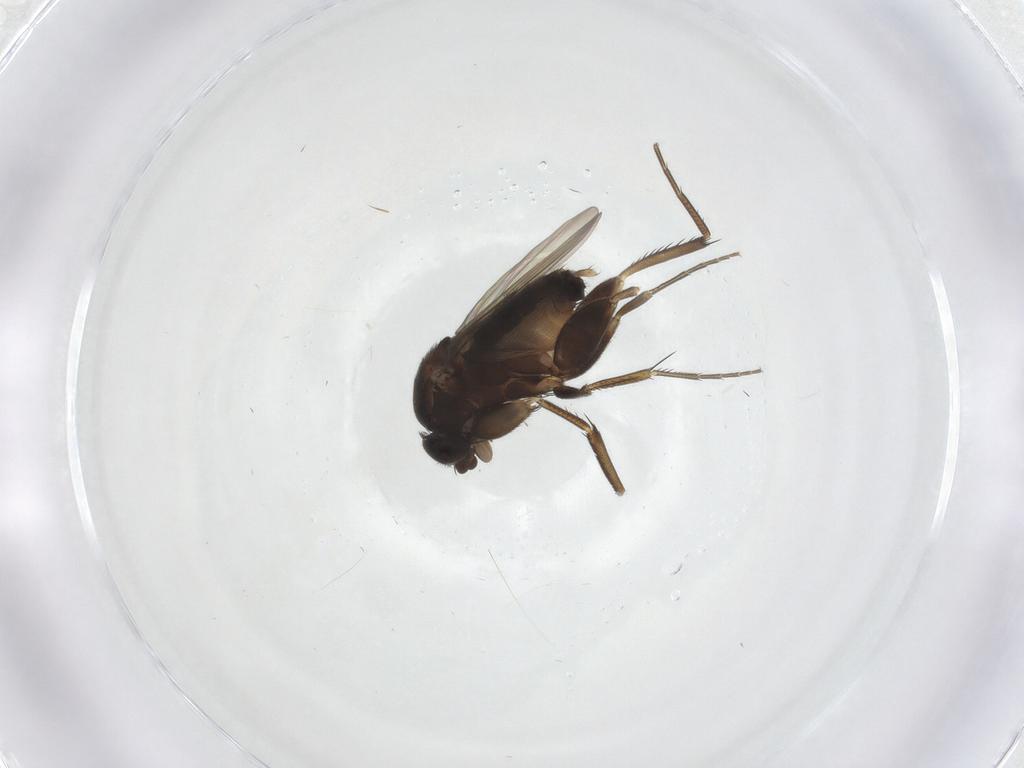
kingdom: Animalia
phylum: Arthropoda
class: Insecta
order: Diptera
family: Phoridae
